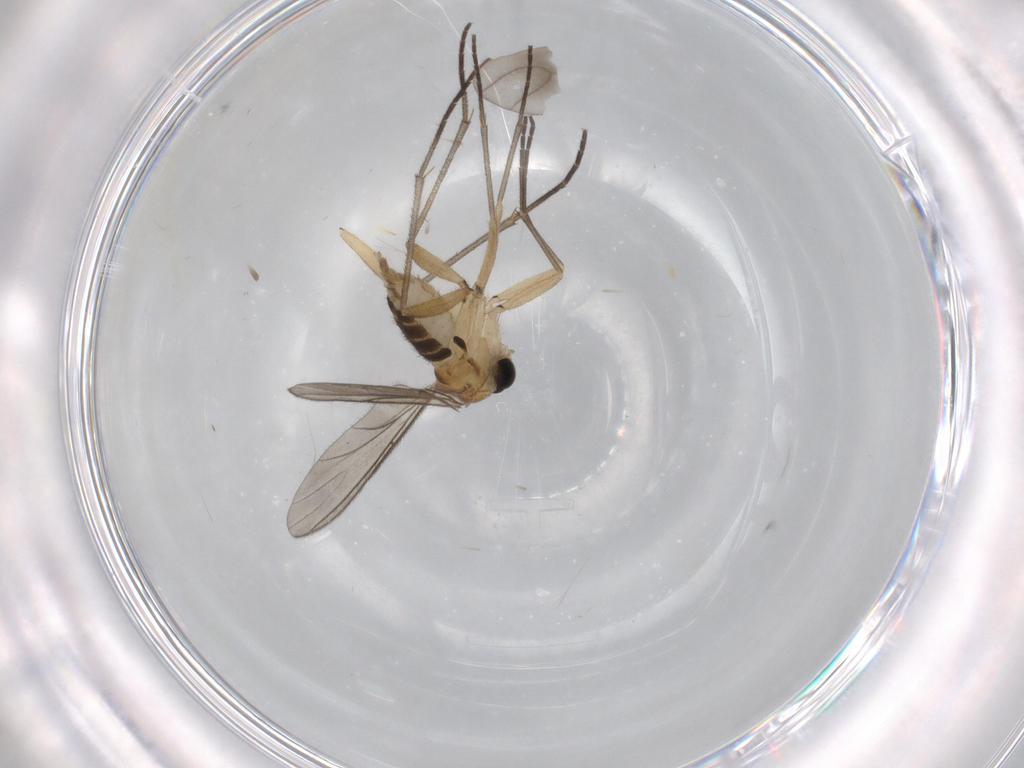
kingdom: Animalia
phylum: Arthropoda
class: Insecta
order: Diptera
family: Sciaridae
